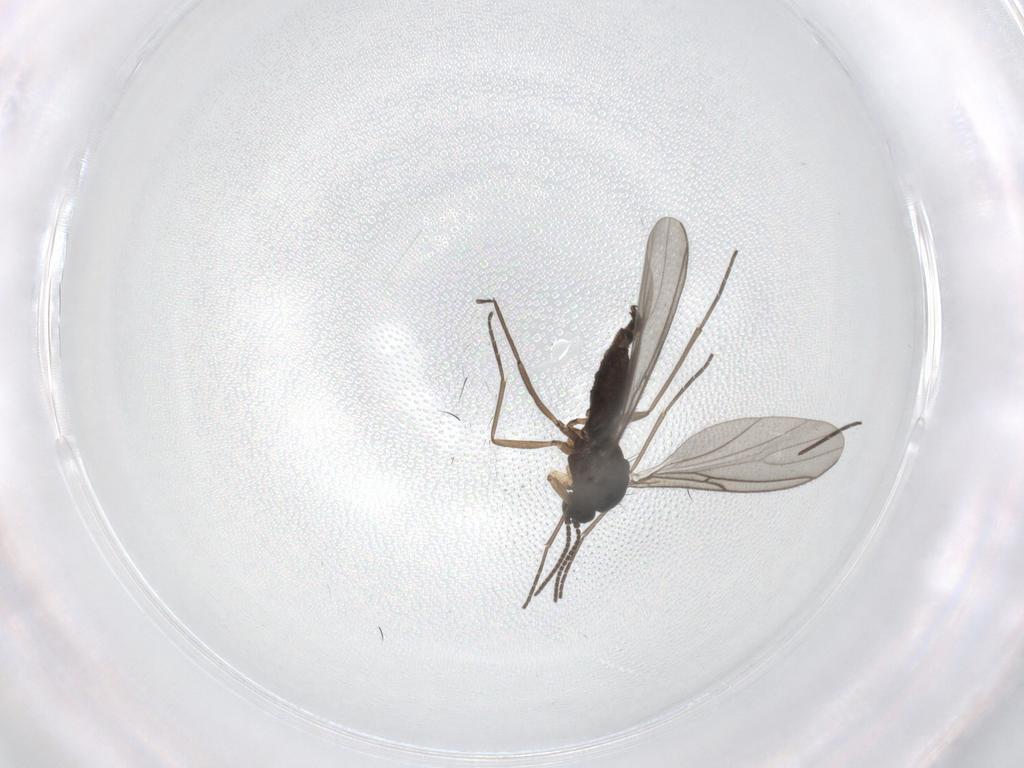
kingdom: Animalia
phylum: Arthropoda
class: Insecta
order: Diptera
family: Sciaridae
